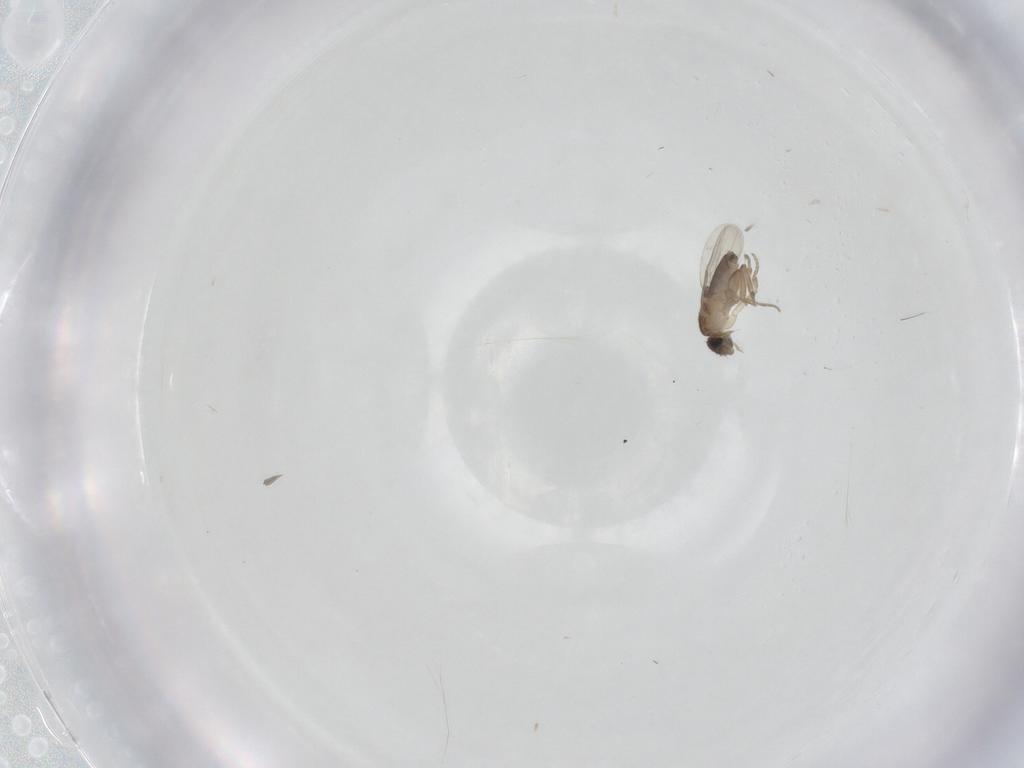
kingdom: Animalia
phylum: Arthropoda
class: Insecta
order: Diptera
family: Phoridae
